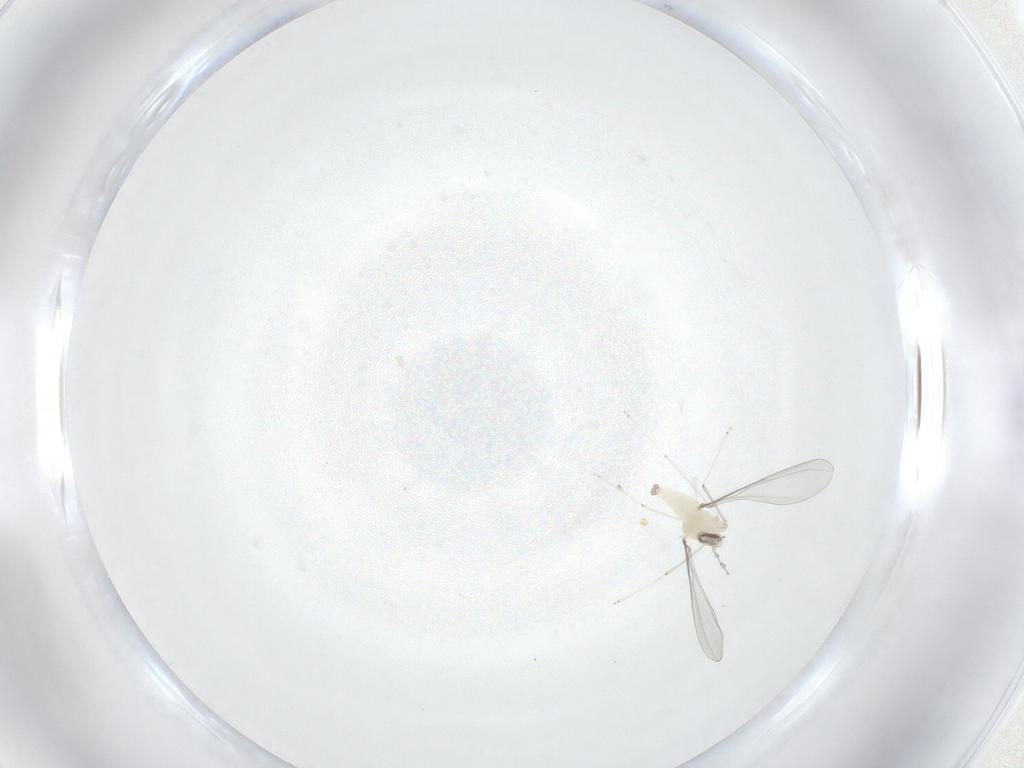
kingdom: Animalia
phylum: Arthropoda
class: Insecta
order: Diptera
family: Cecidomyiidae
